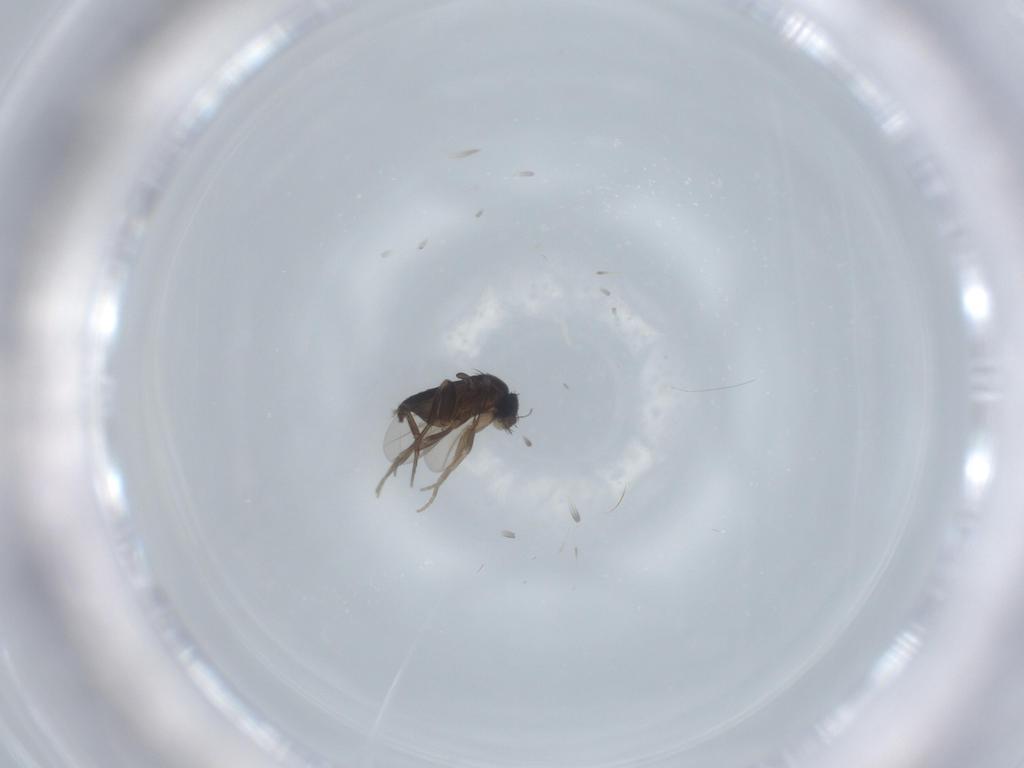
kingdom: Animalia
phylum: Arthropoda
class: Insecta
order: Diptera
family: Phoridae
